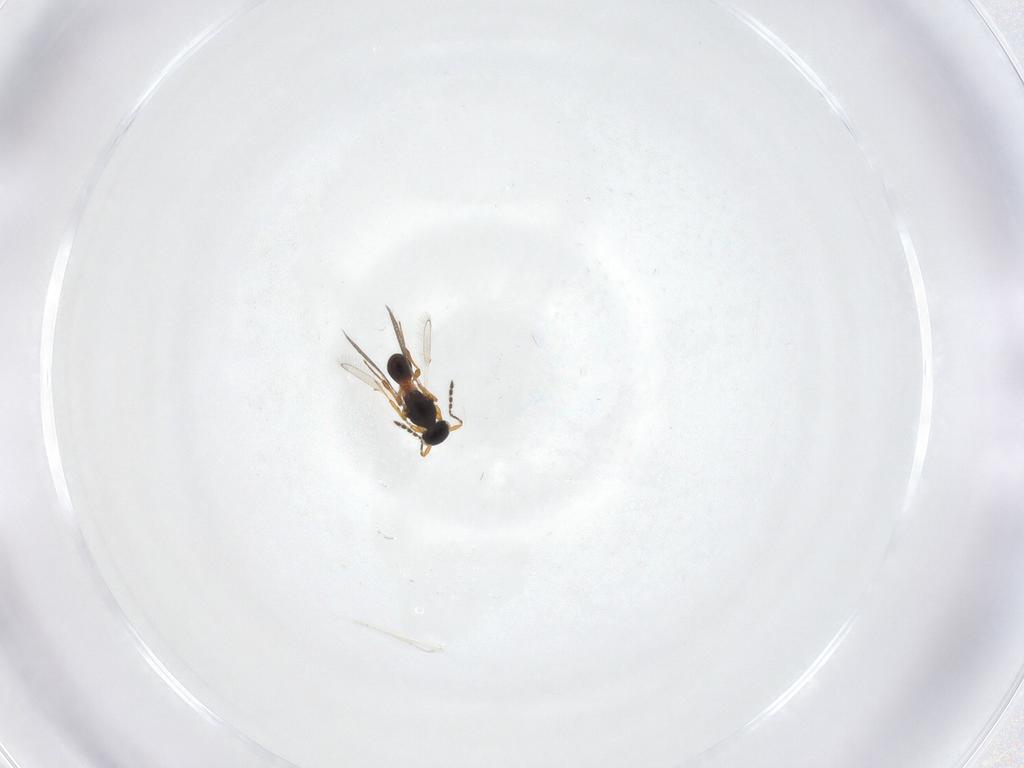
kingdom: Animalia
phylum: Arthropoda
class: Insecta
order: Hymenoptera
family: Platygastridae
